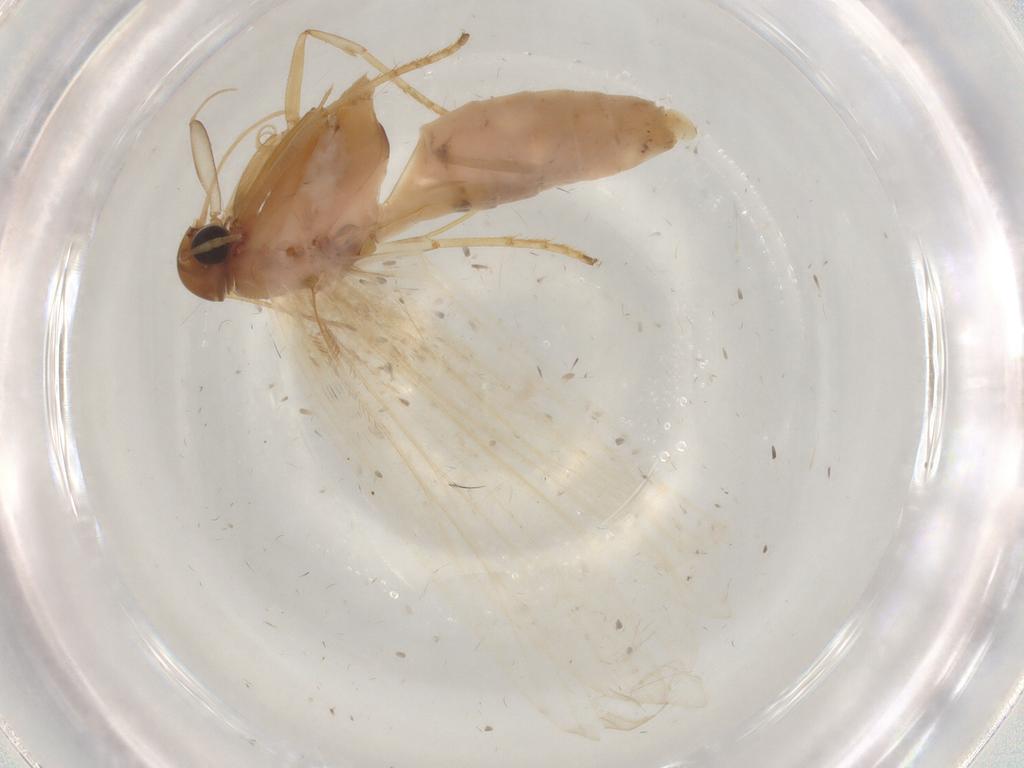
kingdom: Animalia
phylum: Arthropoda
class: Insecta
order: Lepidoptera
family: Gelechiidae
